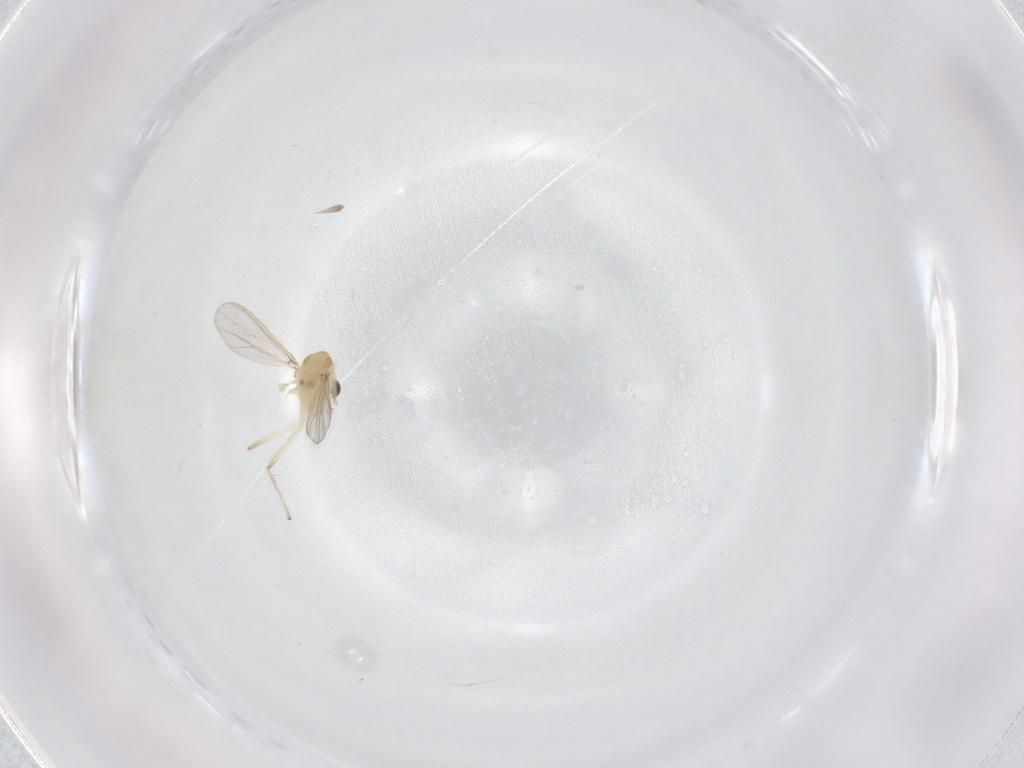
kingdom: Animalia
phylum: Arthropoda
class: Insecta
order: Diptera
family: Chironomidae
